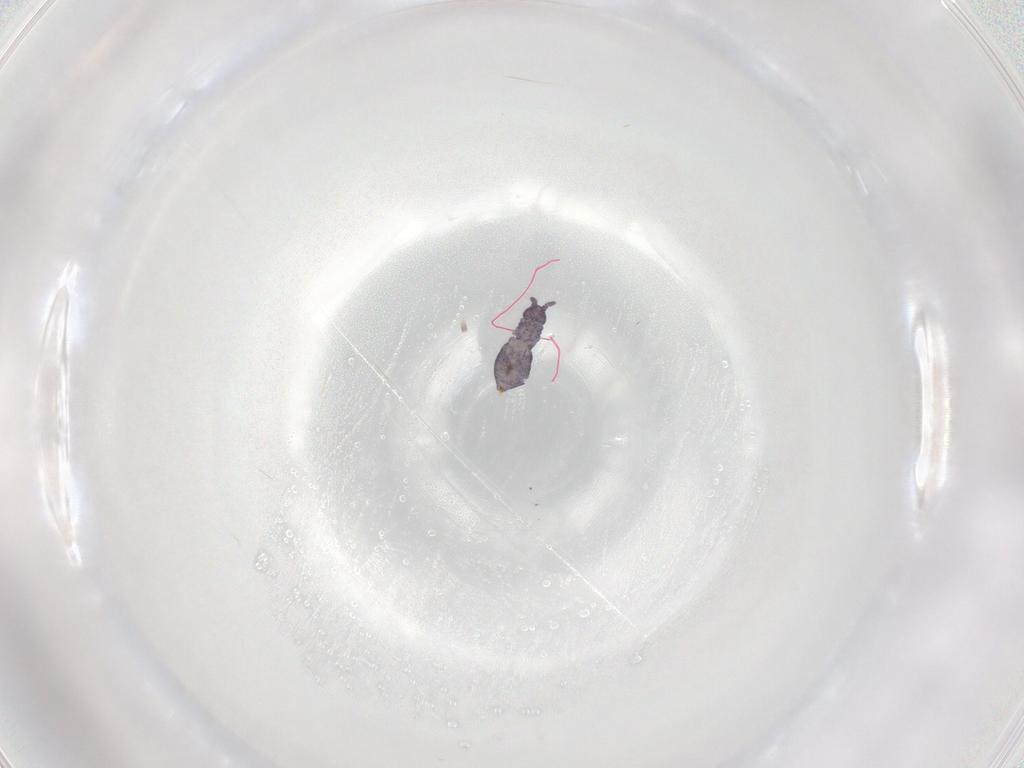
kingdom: Animalia
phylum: Arthropoda
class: Collembola
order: Poduromorpha
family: Brachystomellidae
